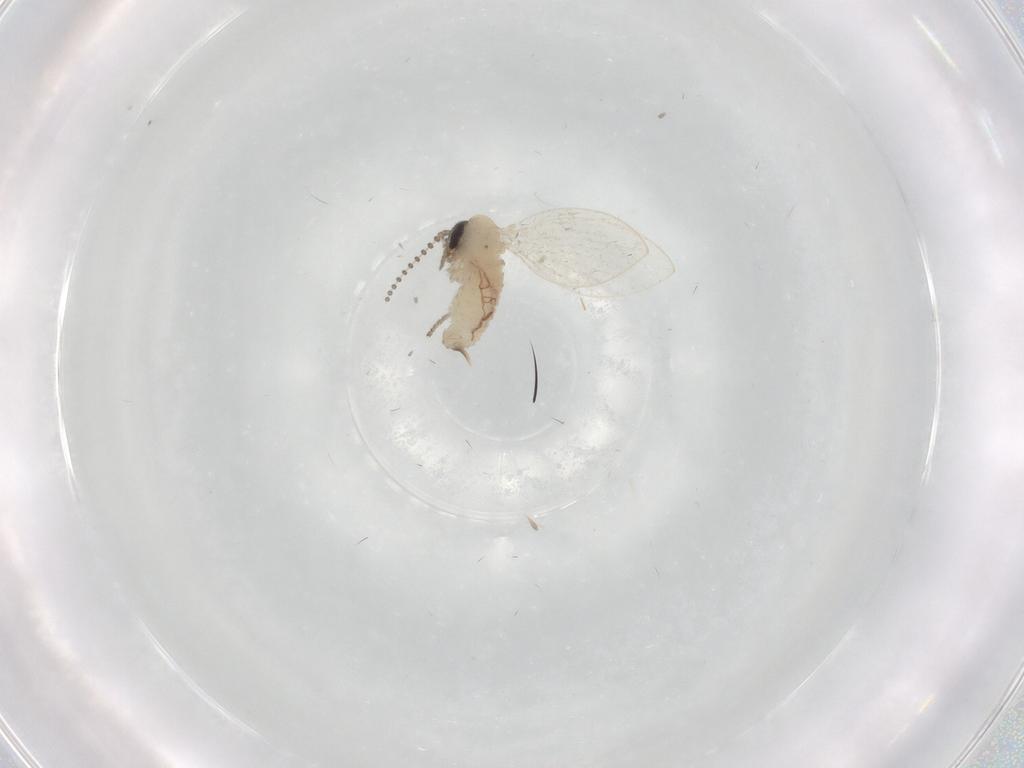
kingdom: Animalia
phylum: Arthropoda
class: Insecta
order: Diptera
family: Psychodidae
